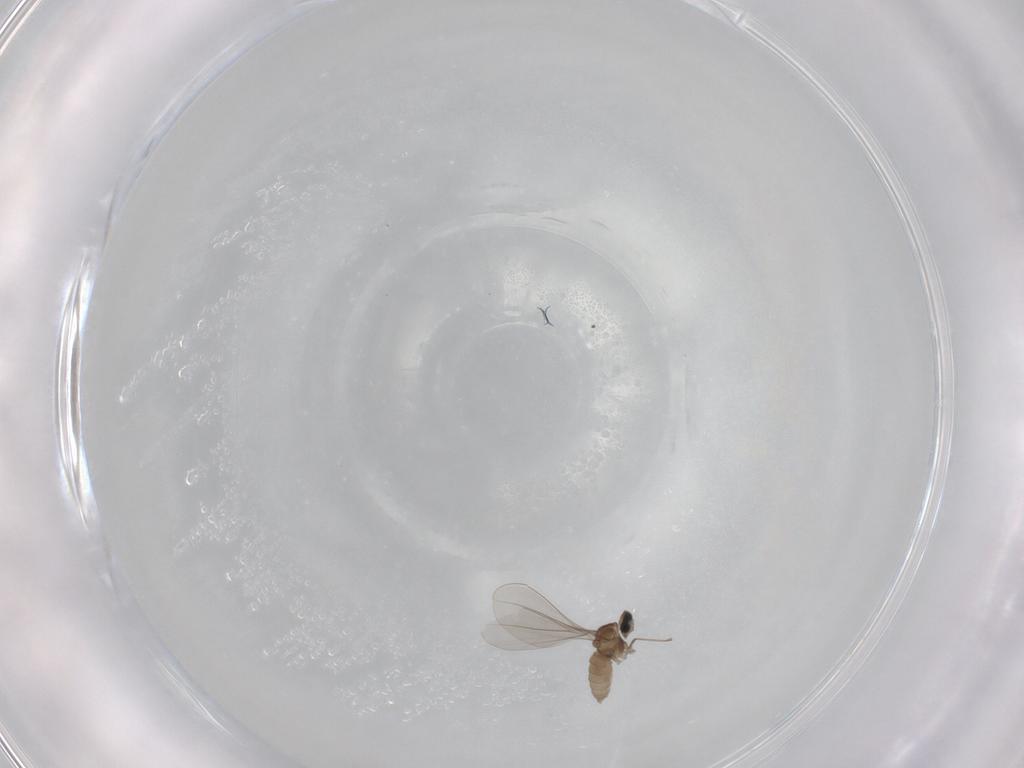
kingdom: Animalia
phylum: Arthropoda
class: Insecta
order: Diptera
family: Cecidomyiidae
